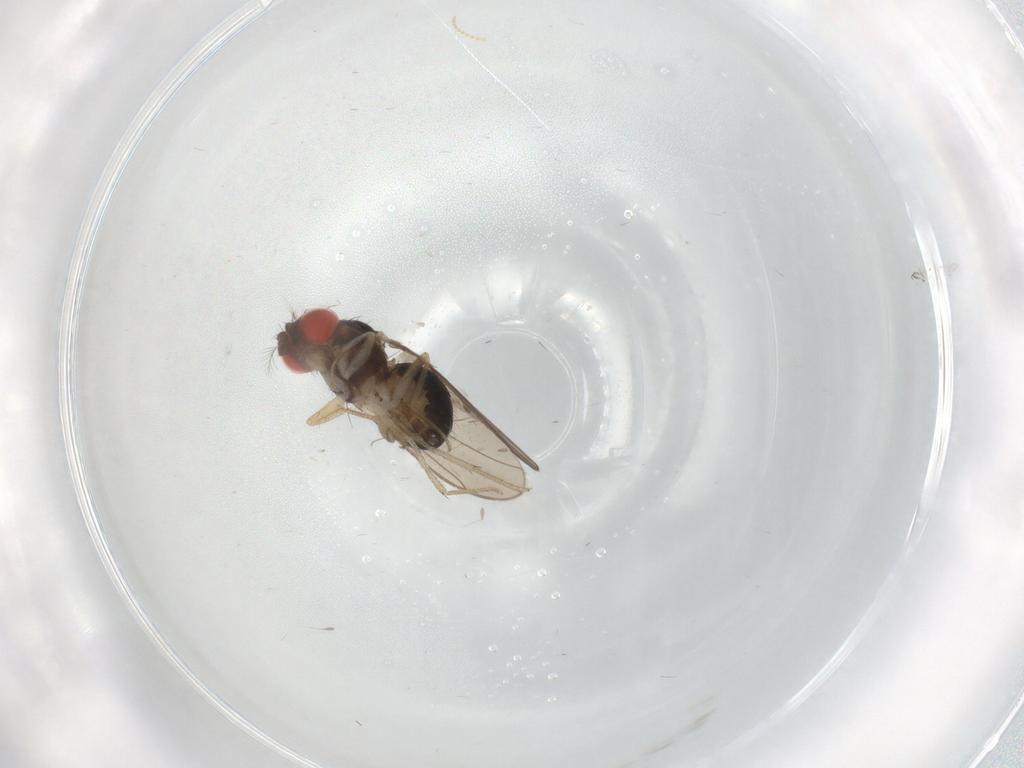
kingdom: Animalia
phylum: Arthropoda
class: Insecta
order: Diptera
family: Drosophilidae
